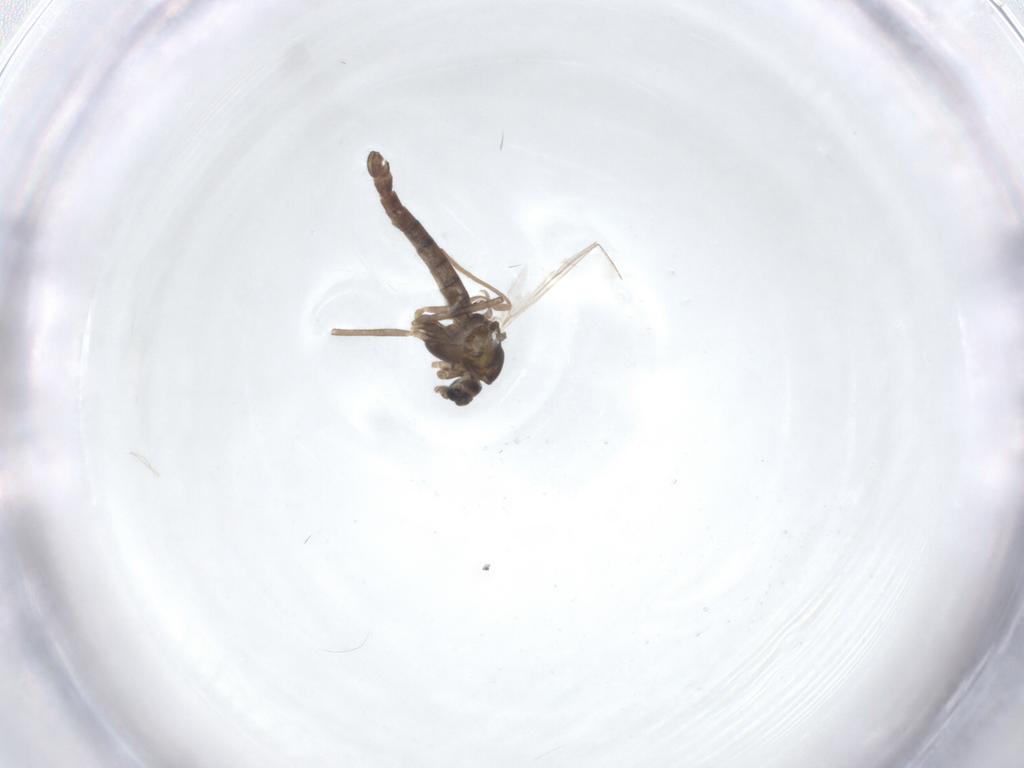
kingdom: Animalia
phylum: Arthropoda
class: Insecta
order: Diptera
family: Chironomidae
